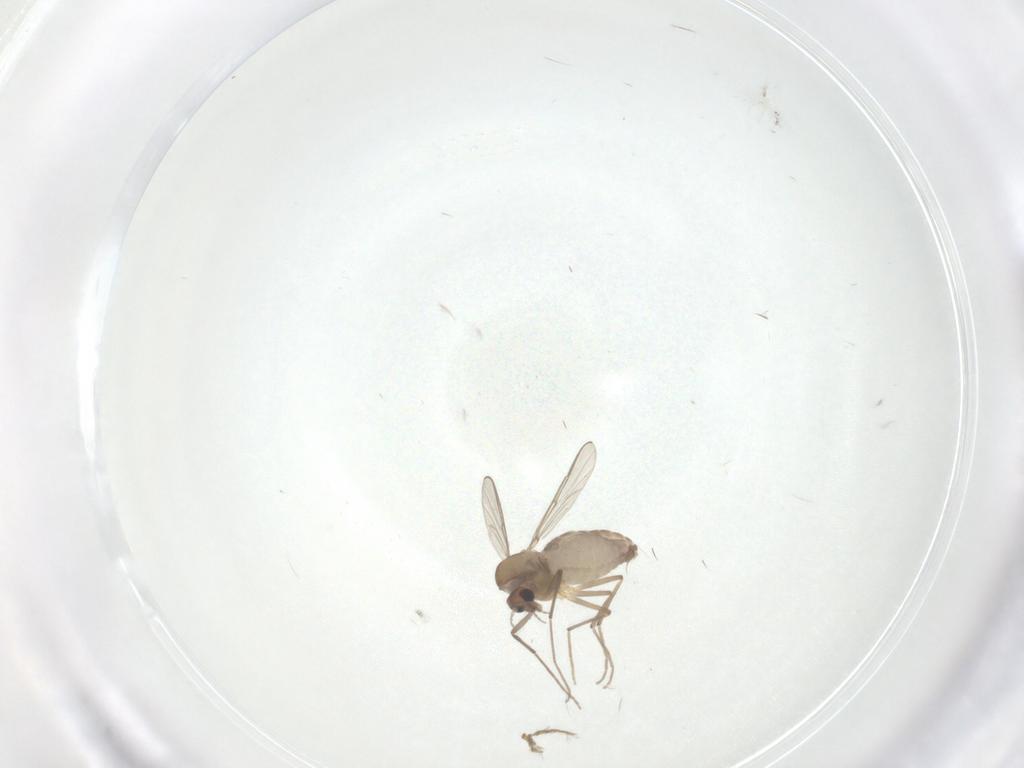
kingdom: Animalia
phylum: Arthropoda
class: Insecta
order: Diptera
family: Chironomidae
